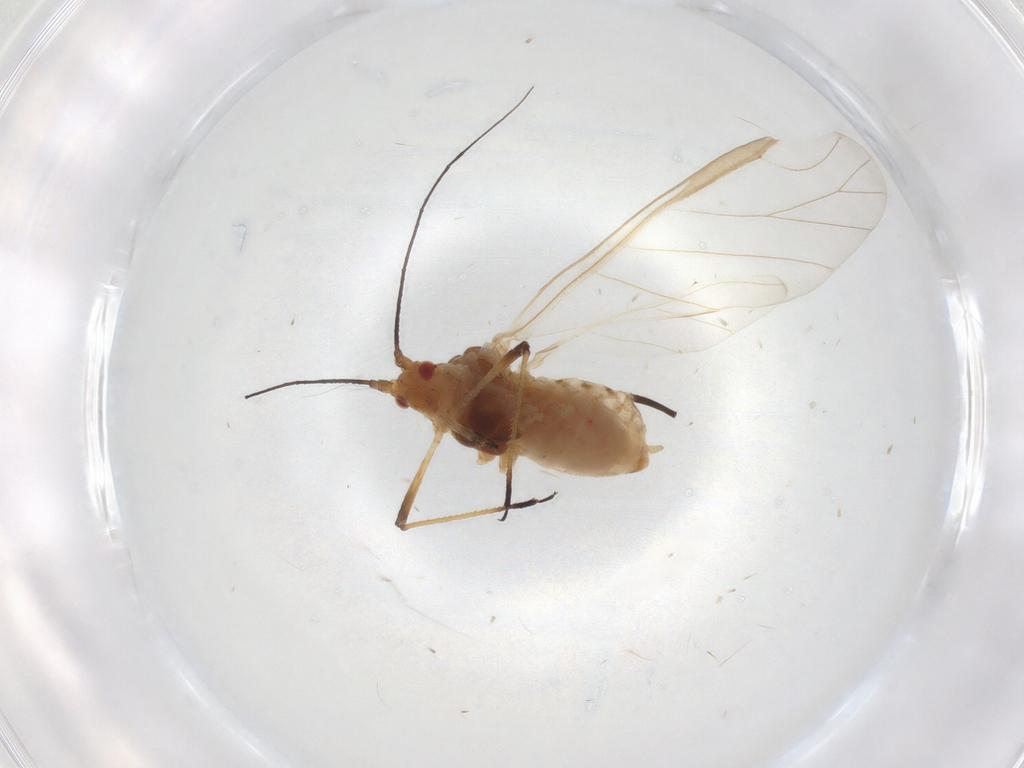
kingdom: Animalia
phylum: Arthropoda
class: Insecta
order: Hemiptera
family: Aphididae
